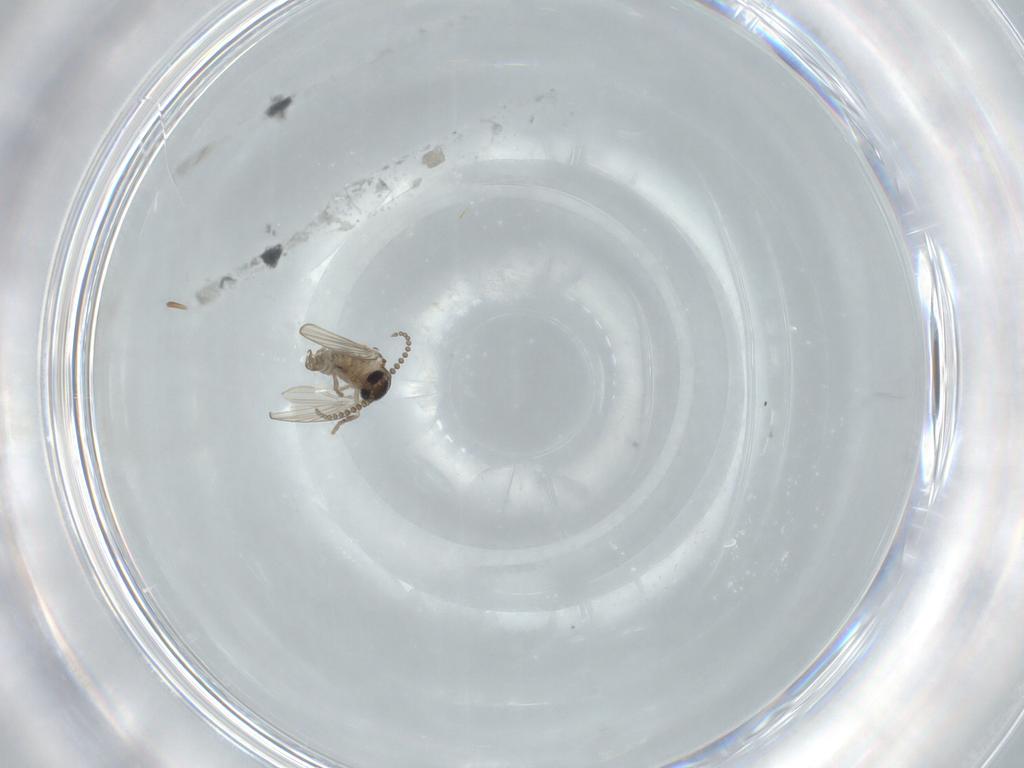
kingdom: Animalia
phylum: Arthropoda
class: Insecta
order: Diptera
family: Psychodidae
